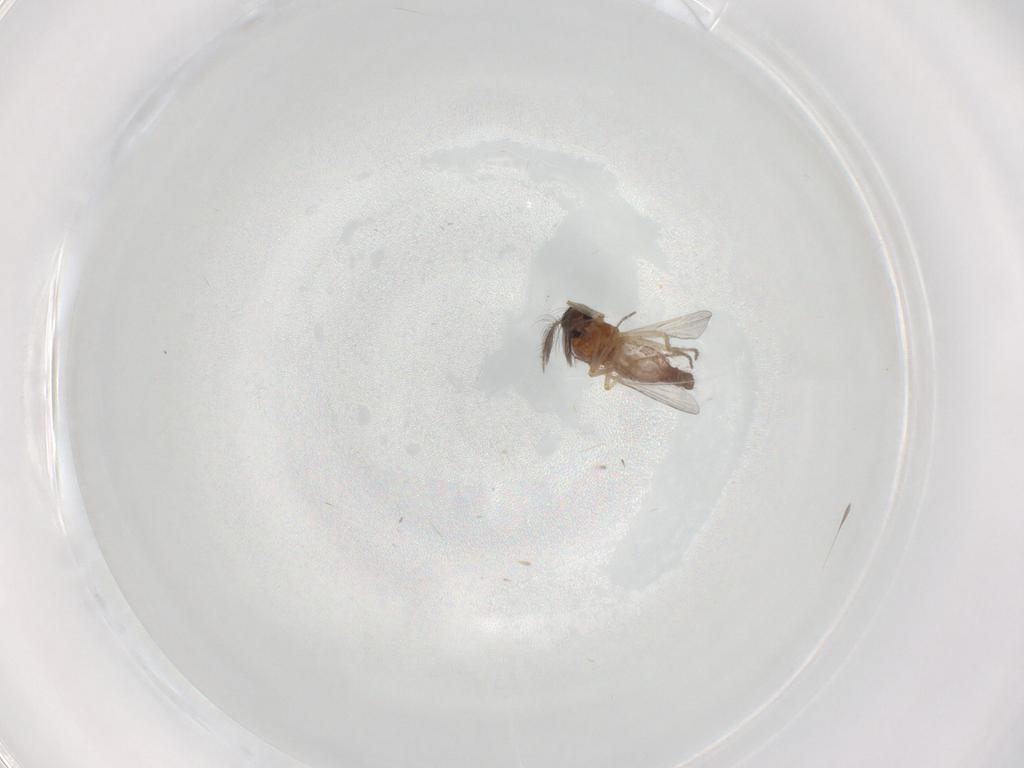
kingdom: Animalia
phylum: Arthropoda
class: Insecta
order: Diptera
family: Ceratopogonidae
